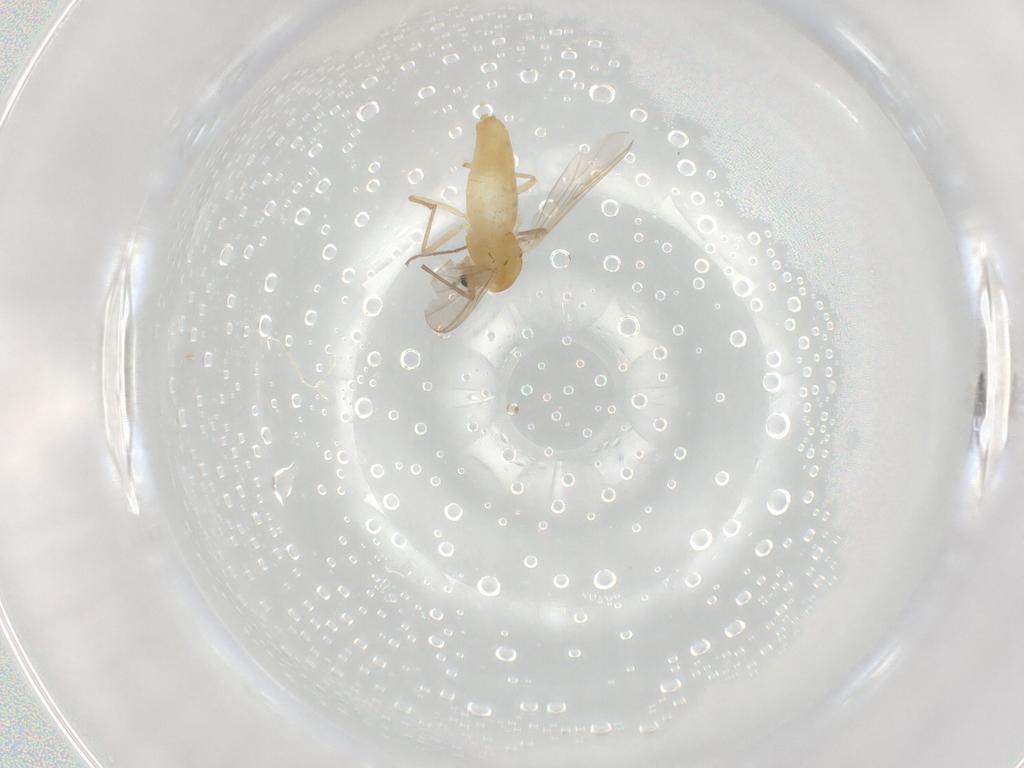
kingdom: Animalia
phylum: Arthropoda
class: Insecta
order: Diptera
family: Chironomidae
